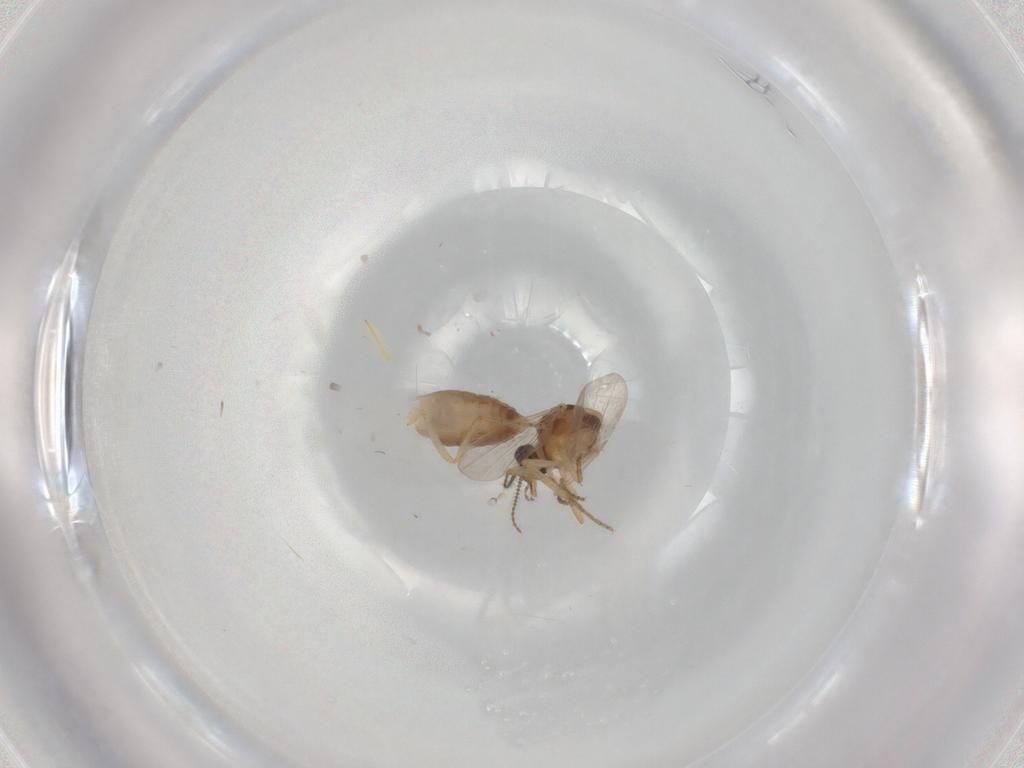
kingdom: Animalia
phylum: Arthropoda
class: Insecta
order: Diptera
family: Ceratopogonidae
